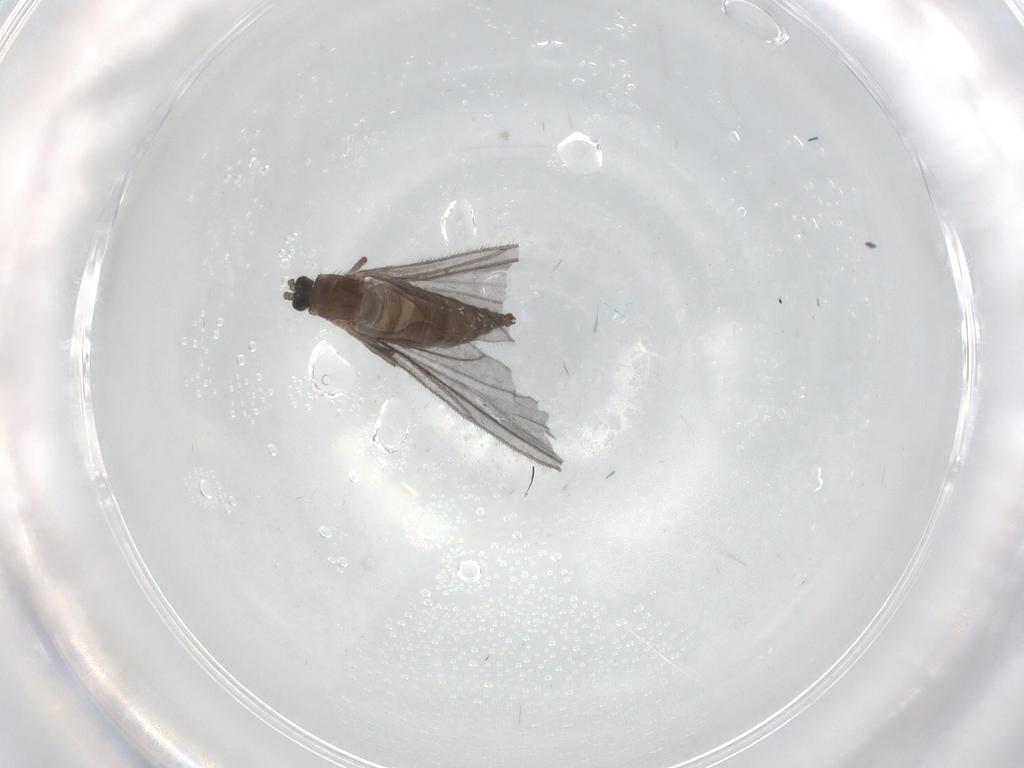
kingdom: Animalia
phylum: Arthropoda
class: Insecta
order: Diptera
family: Sciaridae
